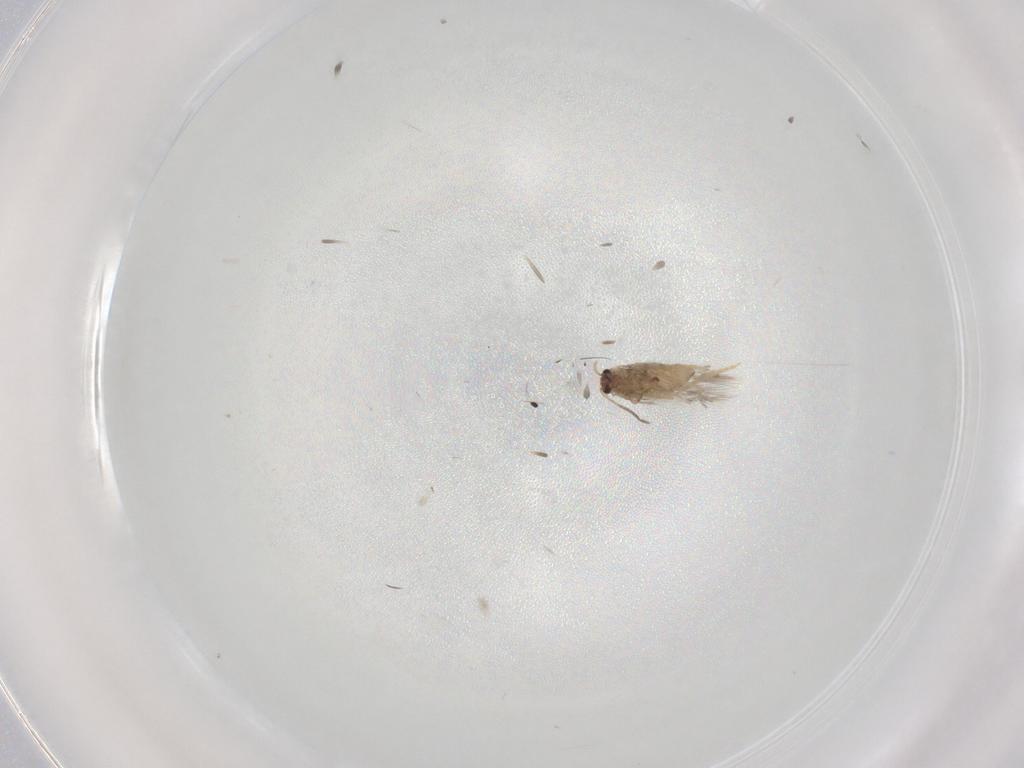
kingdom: Animalia
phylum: Arthropoda
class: Insecta
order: Lepidoptera
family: Nepticulidae
